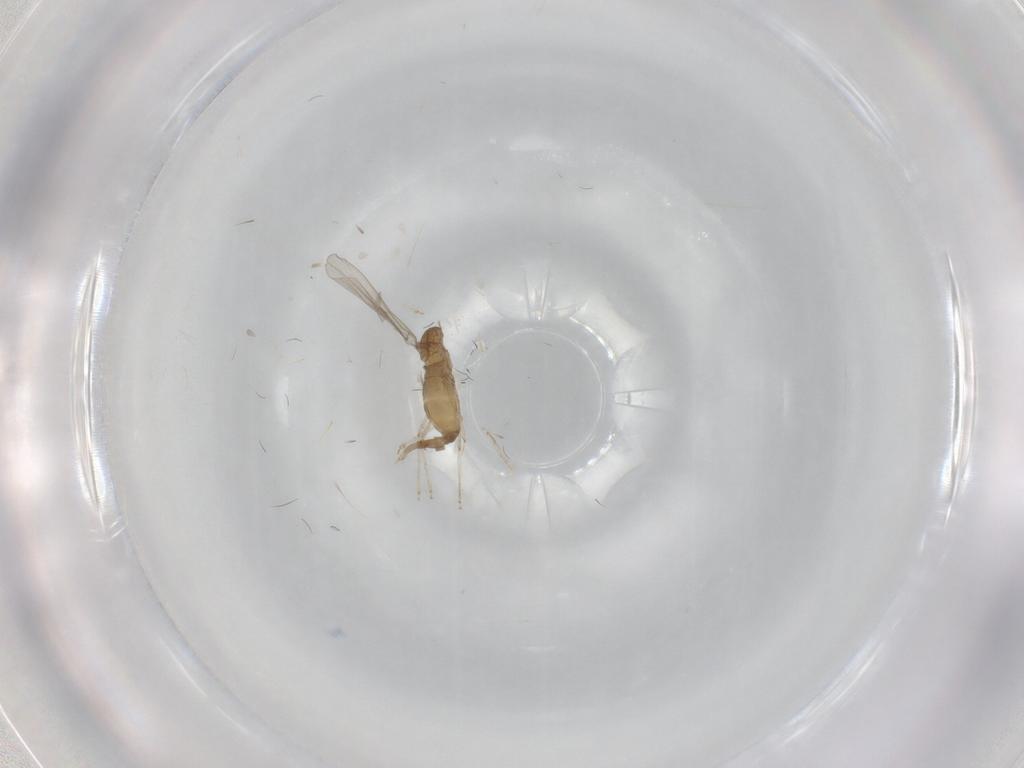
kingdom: Animalia
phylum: Arthropoda
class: Insecta
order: Diptera
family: Cecidomyiidae
